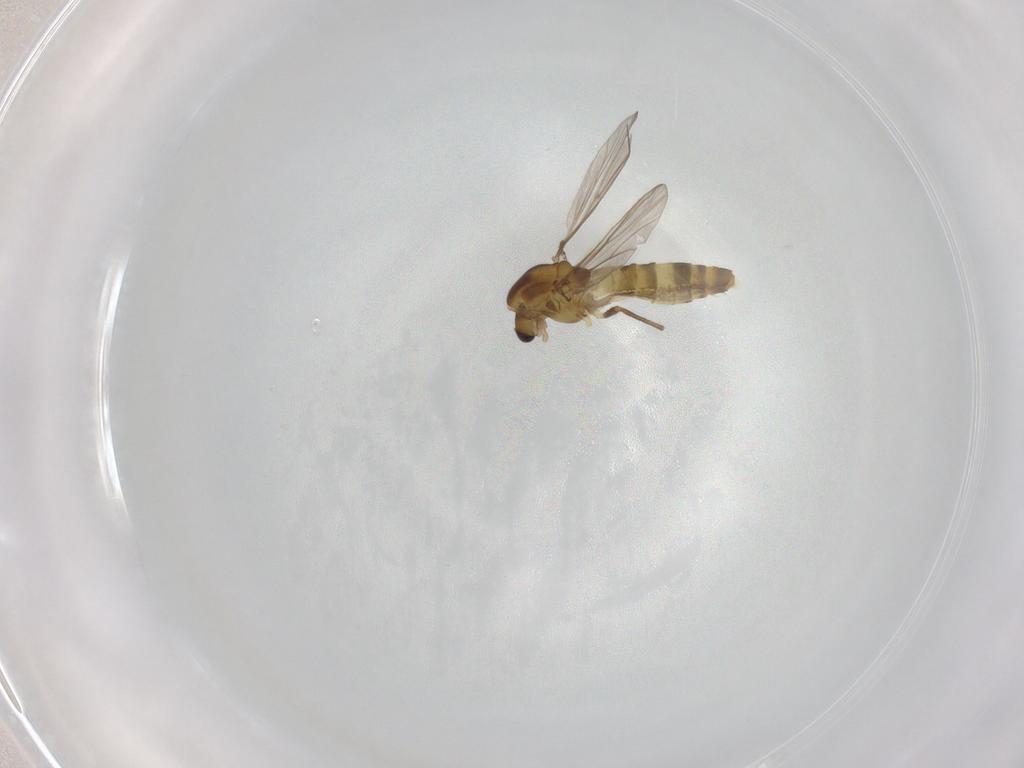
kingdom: Animalia
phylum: Arthropoda
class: Insecta
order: Diptera
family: Chironomidae
